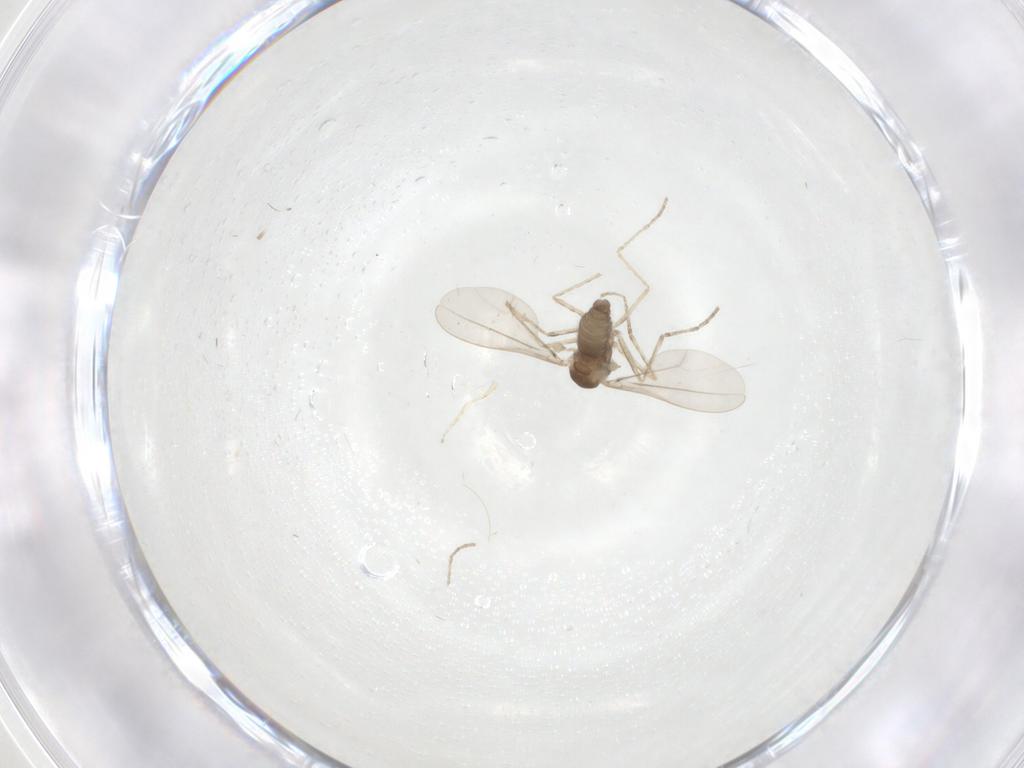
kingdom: Animalia
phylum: Arthropoda
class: Insecta
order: Diptera
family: Cecidomyiidae
